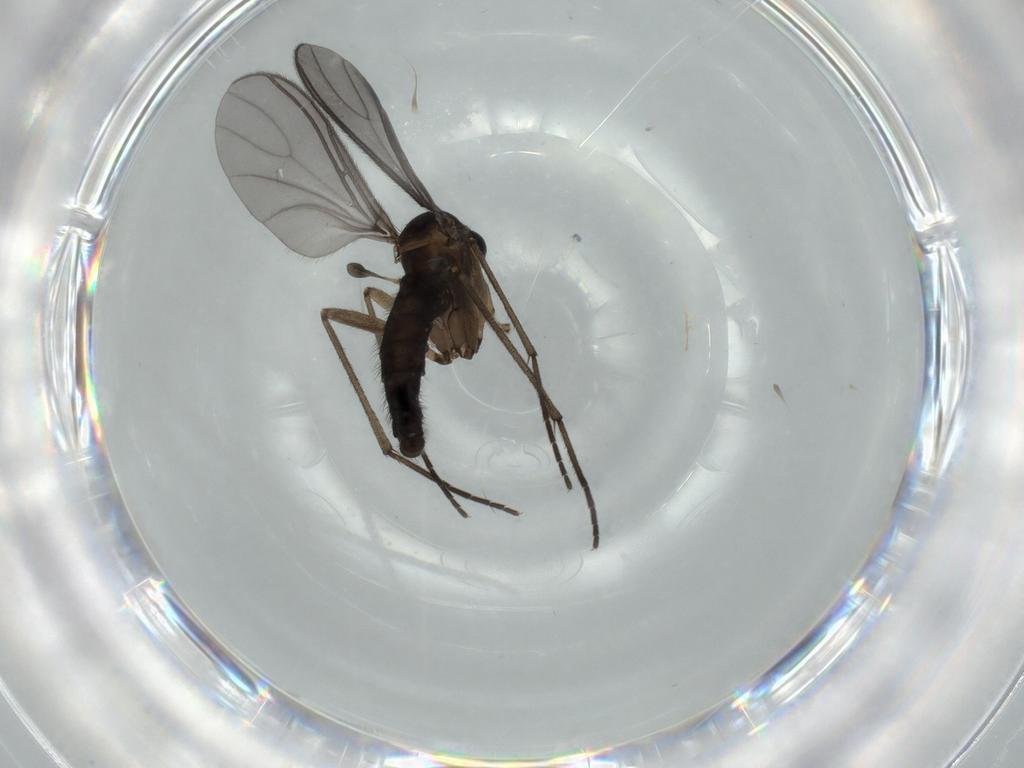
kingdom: Animalia
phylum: Arthropoda
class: Insecta
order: Diptera
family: Sciaridae
